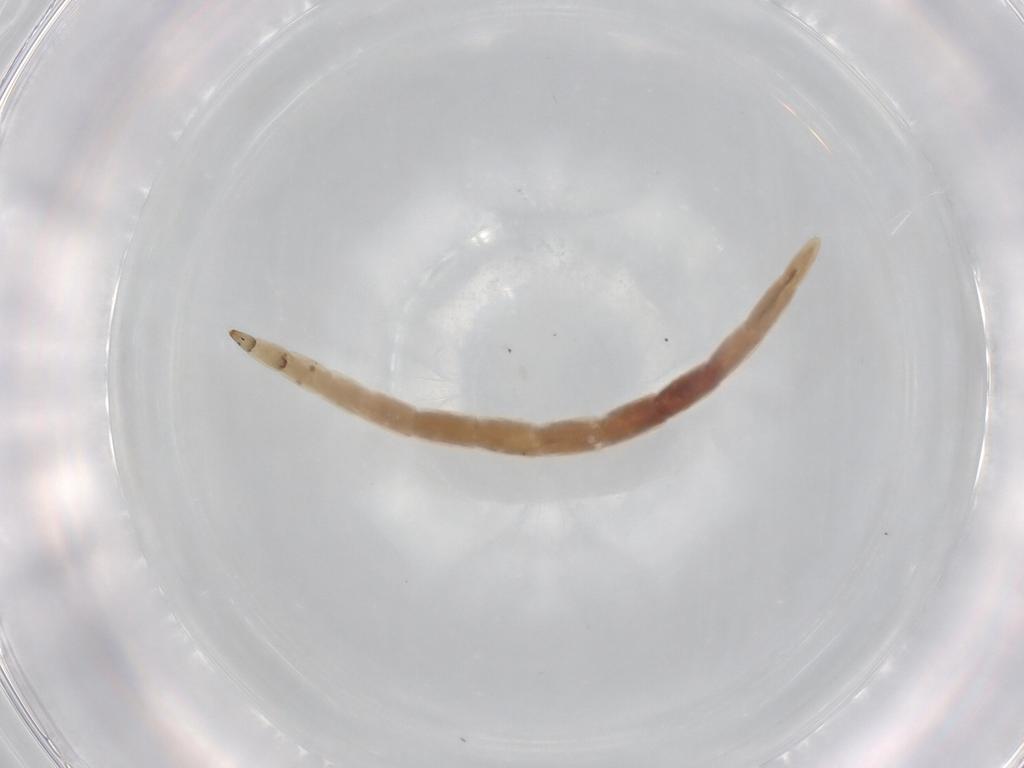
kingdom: Animalia
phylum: Arthropoda
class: Insecta
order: Diptera
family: Ceratopogonidae
